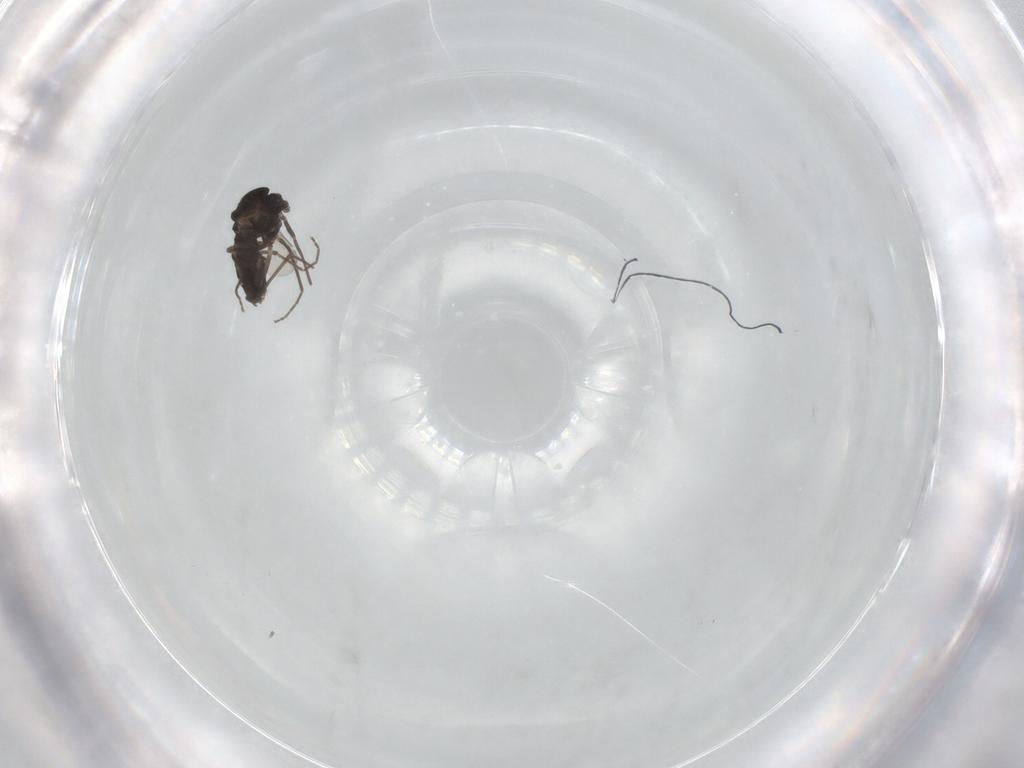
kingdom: Animalia
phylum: Arthropoda
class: Insecta
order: Diptera
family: Chironomidae
